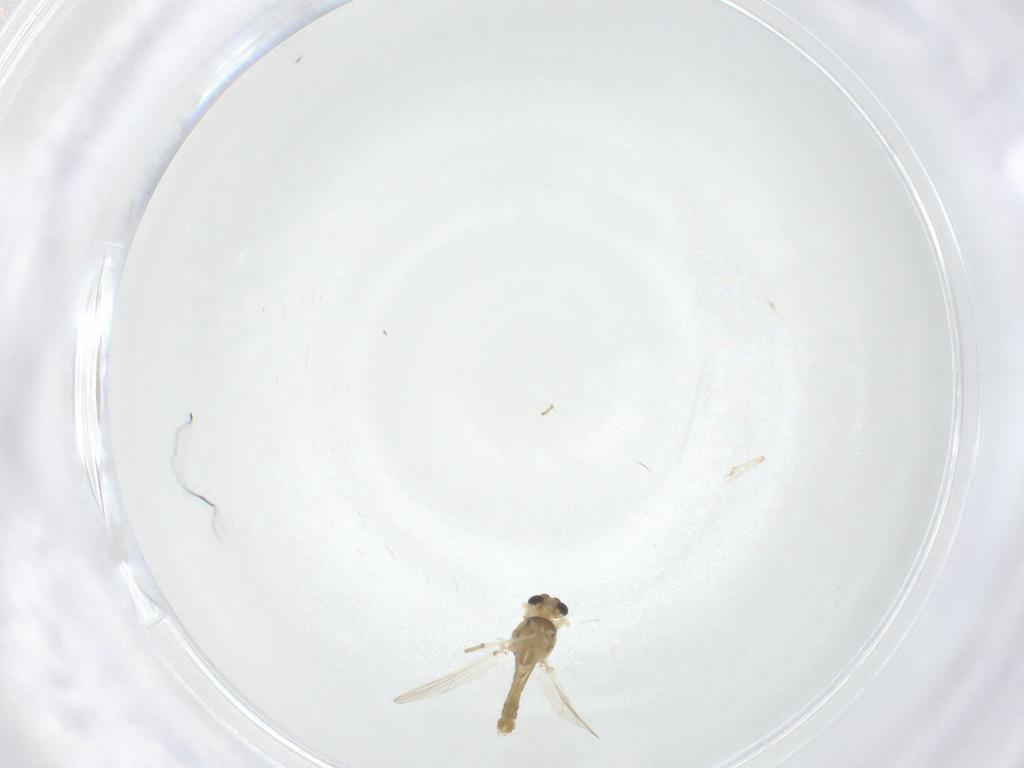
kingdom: Animalia
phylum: Arthropoda
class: Insecta
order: Diptera
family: Chironomidae
